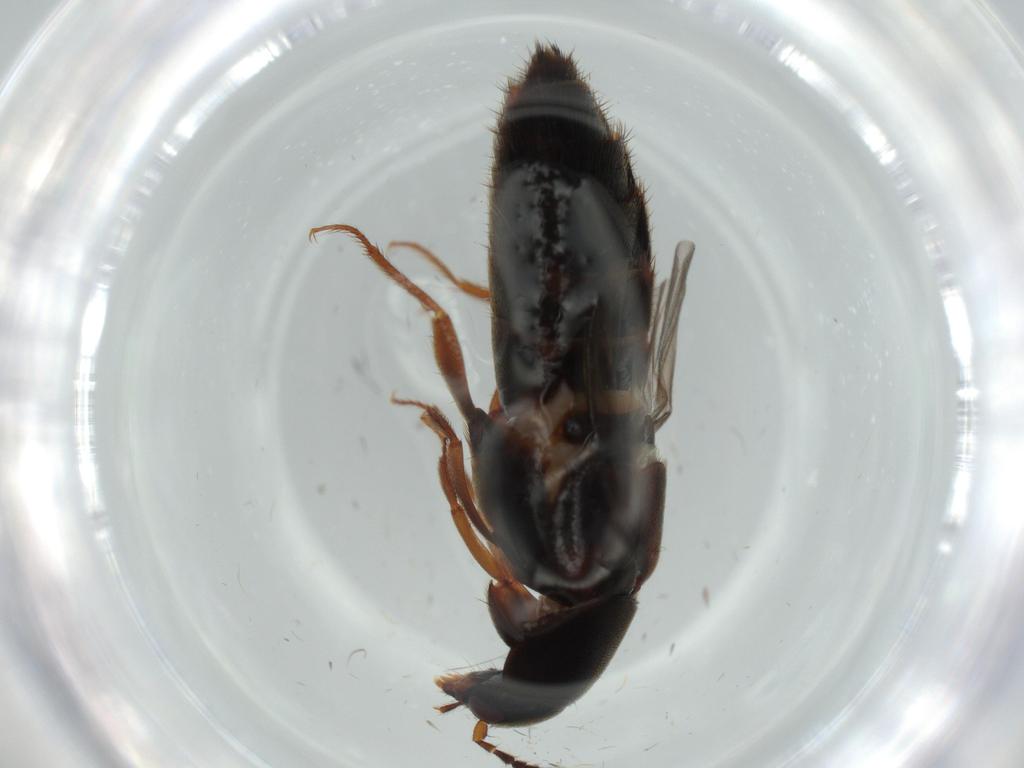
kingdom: Animalia
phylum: Arthropoda
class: Insecta
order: Coleoptera
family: Staphylinidae
